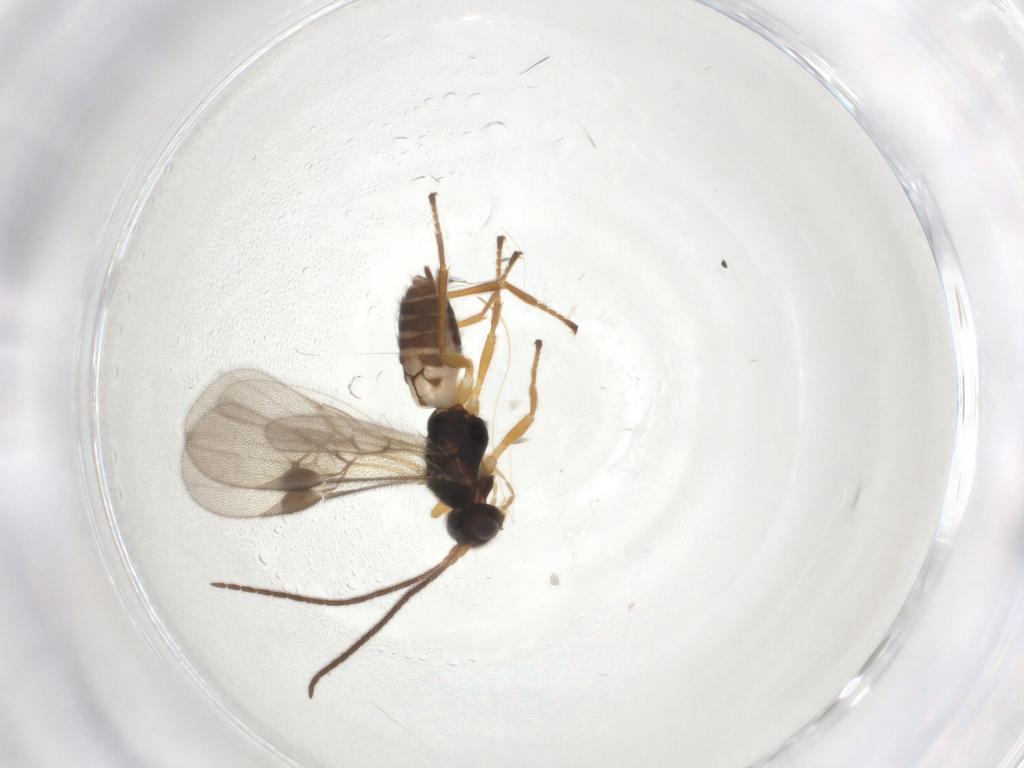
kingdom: Animalia
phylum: Arthropoda
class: Insecta
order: Hymenoptera
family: Braconidae
